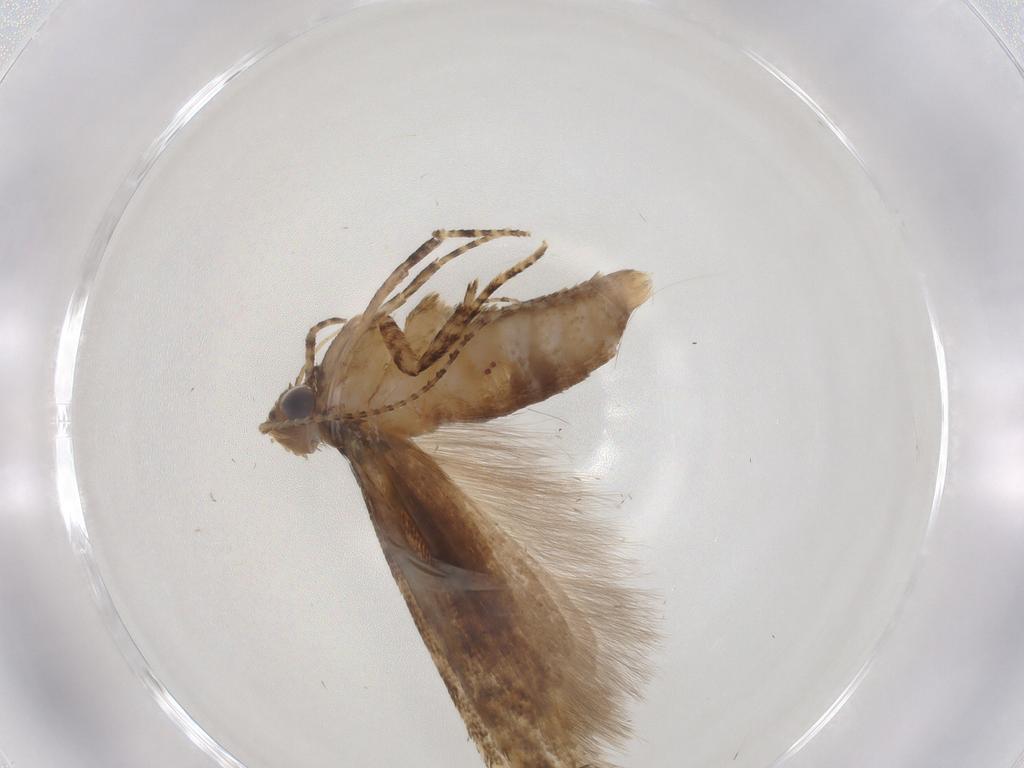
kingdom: Animalia
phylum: Arthropoda
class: Insecta
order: Lepidoptera
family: Gelechiidae
